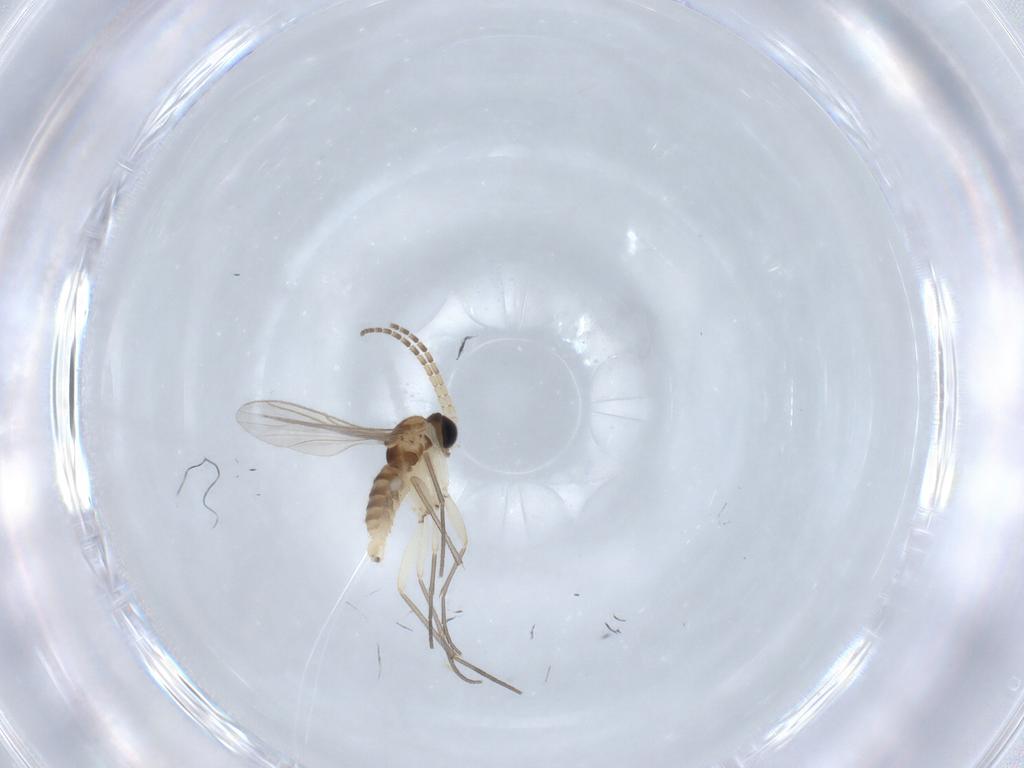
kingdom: Animalia
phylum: Arthropoda
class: Insecta
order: Diptera
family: Sciaridae
